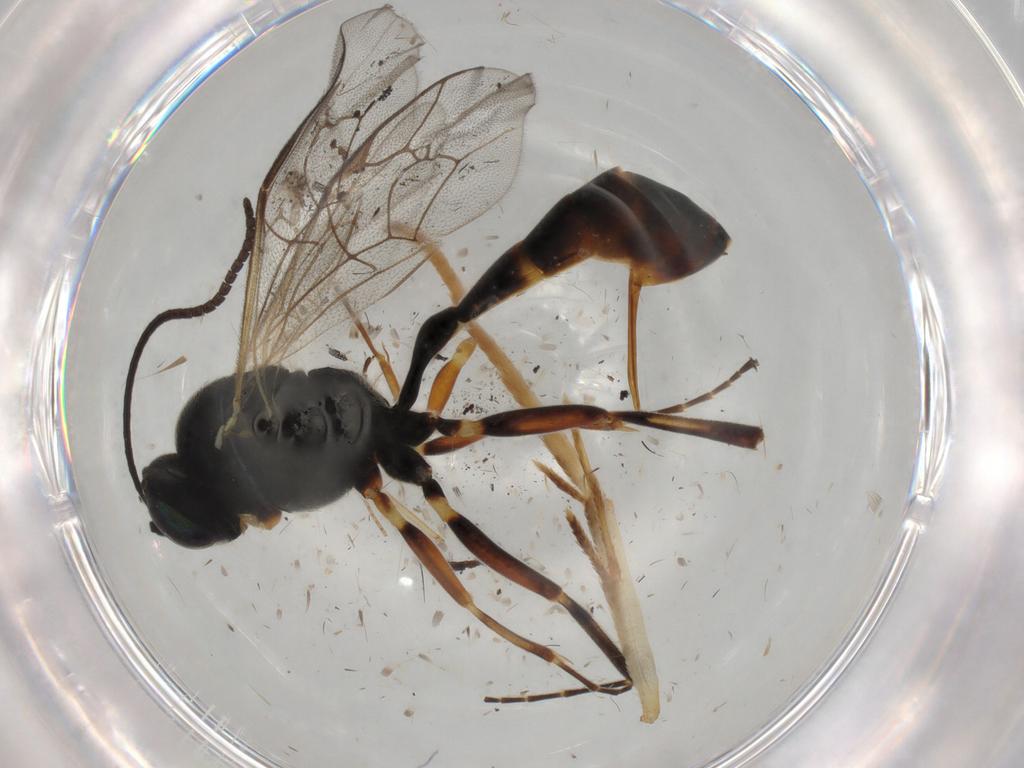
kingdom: Animalia
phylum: Arthropoda
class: Insecta
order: Hymenoptera
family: Ichneumonidae
